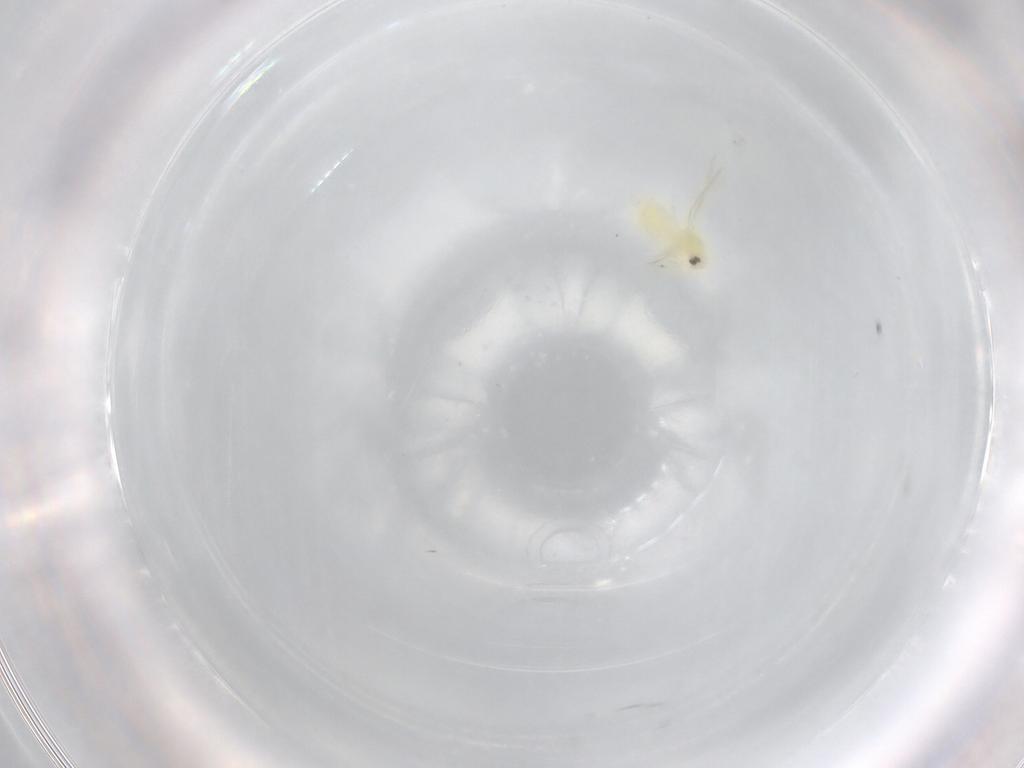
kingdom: Animalia
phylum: Arthropoda
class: Insecta
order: Hemiptera
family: Aleyrodidae
